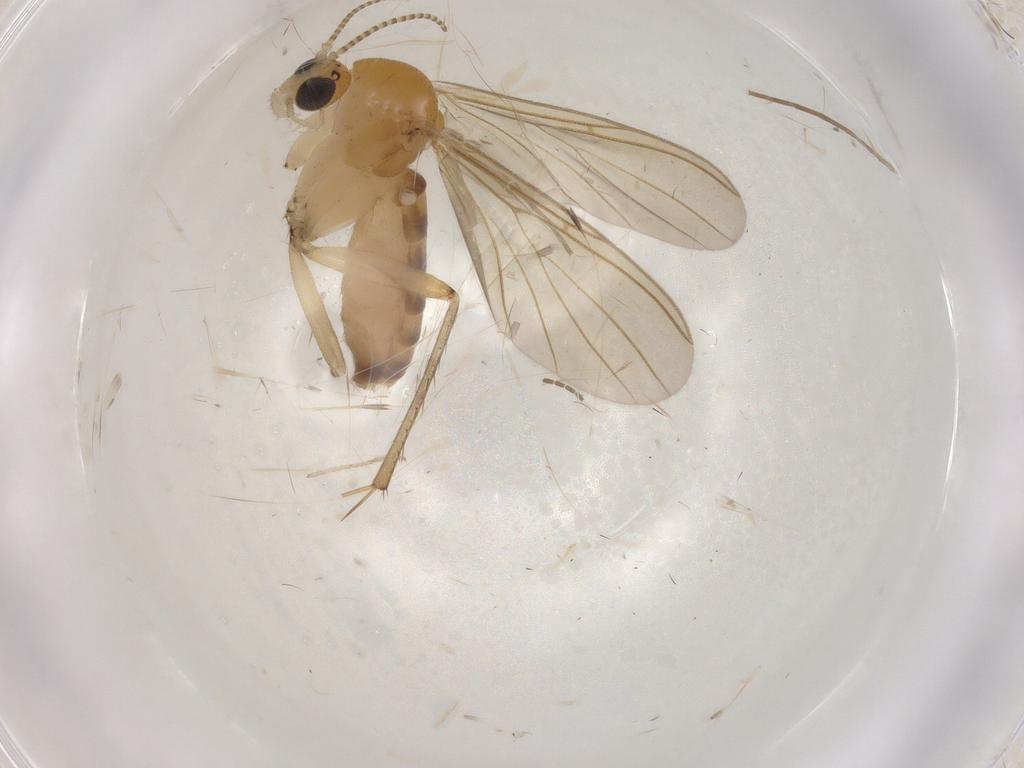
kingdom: Animalia
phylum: Arthropoda
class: Insecta
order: Diptera
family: Mycetophilidae
